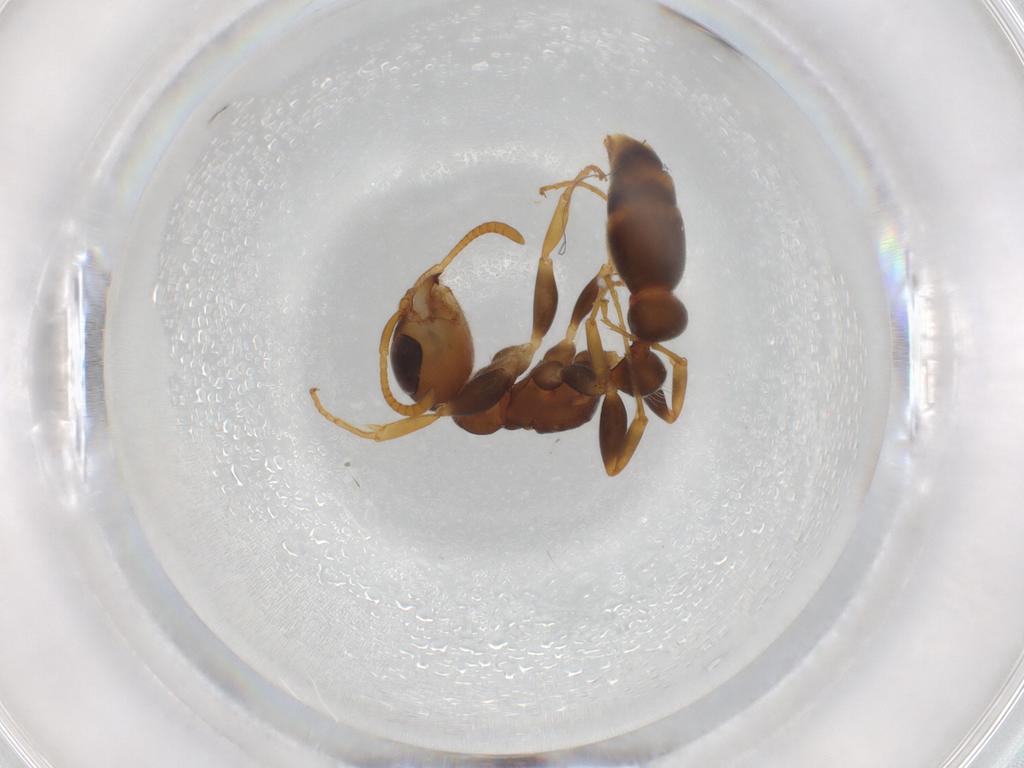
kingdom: Animalia
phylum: Arthropoda
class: Insecta
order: Hymenoptera
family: Formicidae
